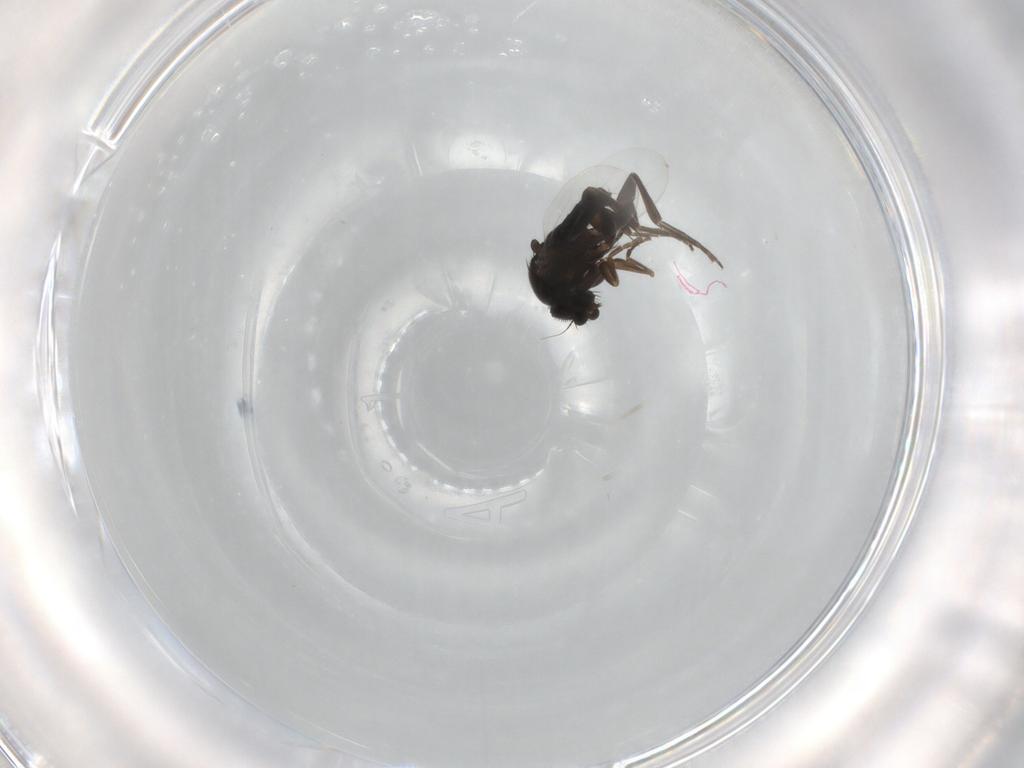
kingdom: Animalia
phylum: Arthropoda
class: Insecta
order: Diptera
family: Phoridae
